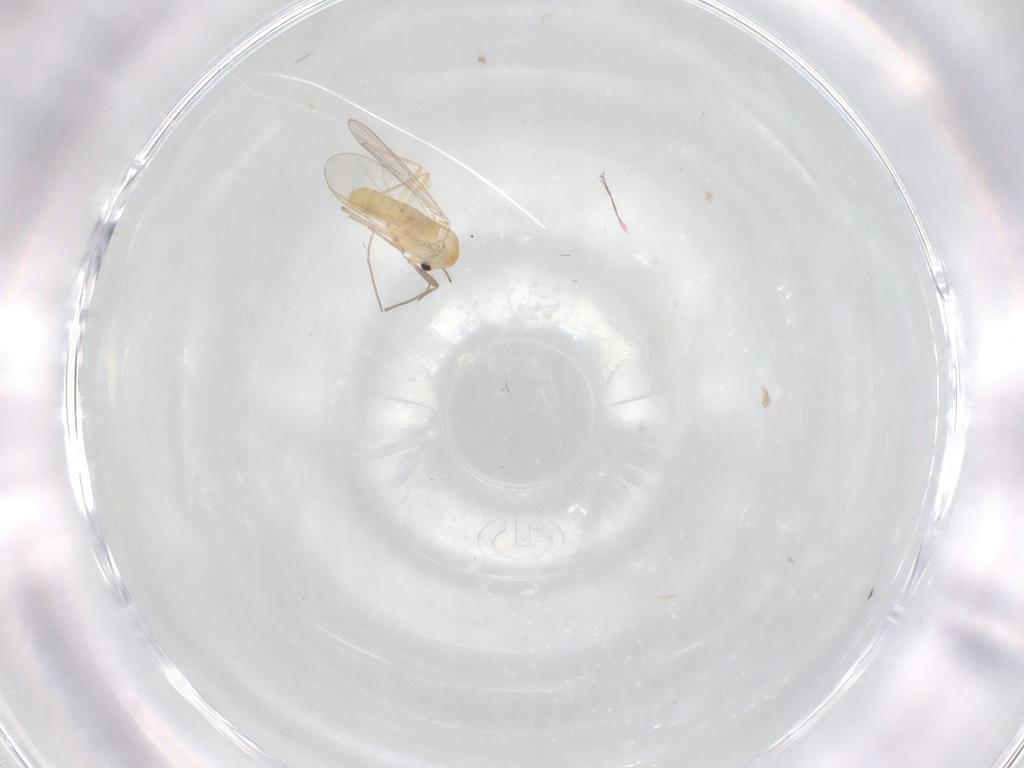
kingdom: Animalia
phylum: Arthropoda
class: Insecta
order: Diptera
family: Chironomidae
